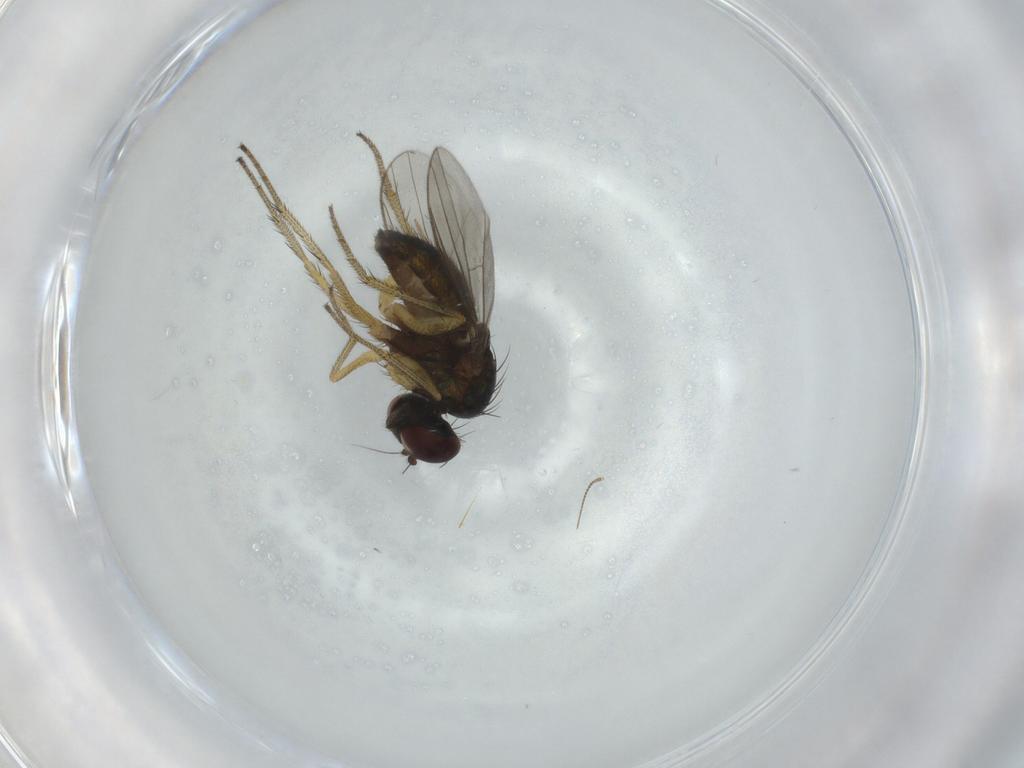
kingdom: Animalia
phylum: Arthropoda
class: Insecta
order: Diptera
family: Dolichopodidae
